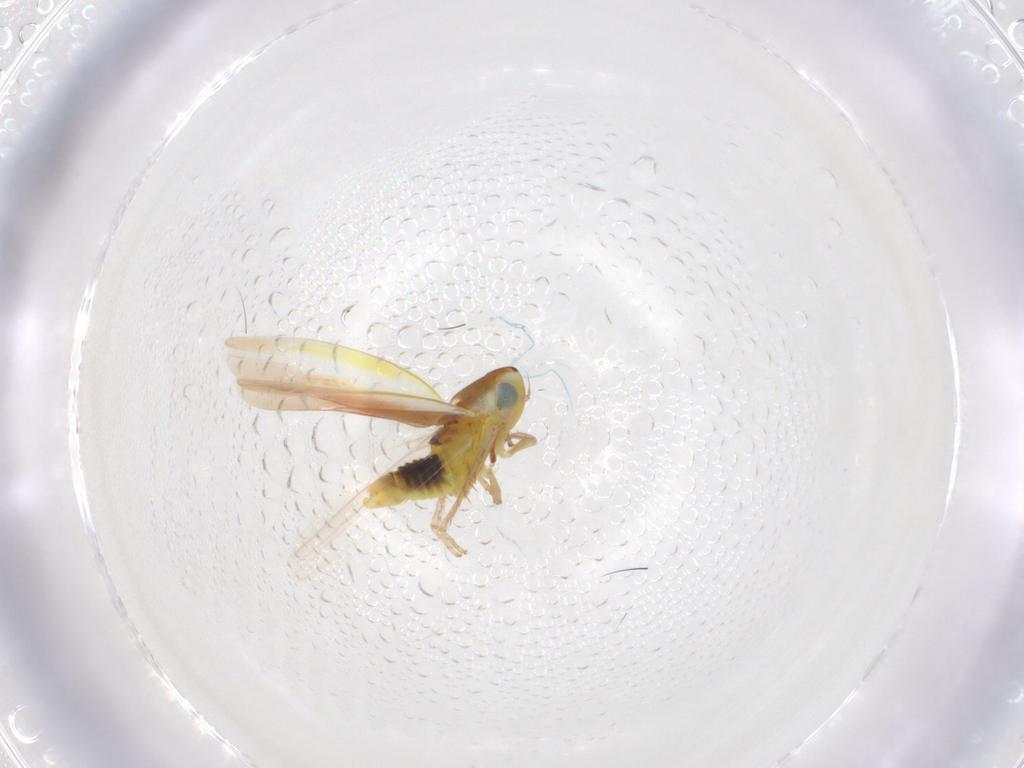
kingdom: Animalia
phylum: Arthropoda
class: Insecta
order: Hemiptera
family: Cicadellidae
